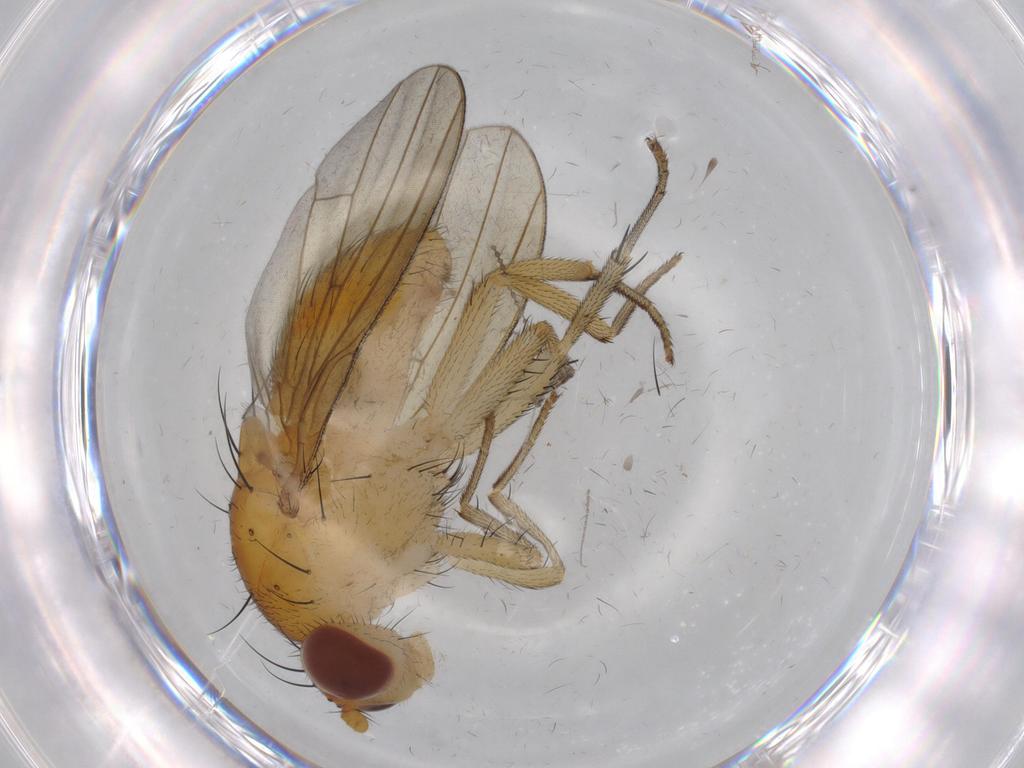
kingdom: Animalia
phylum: Arthropoda
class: Insecta
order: Diptera
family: Chironomidae
